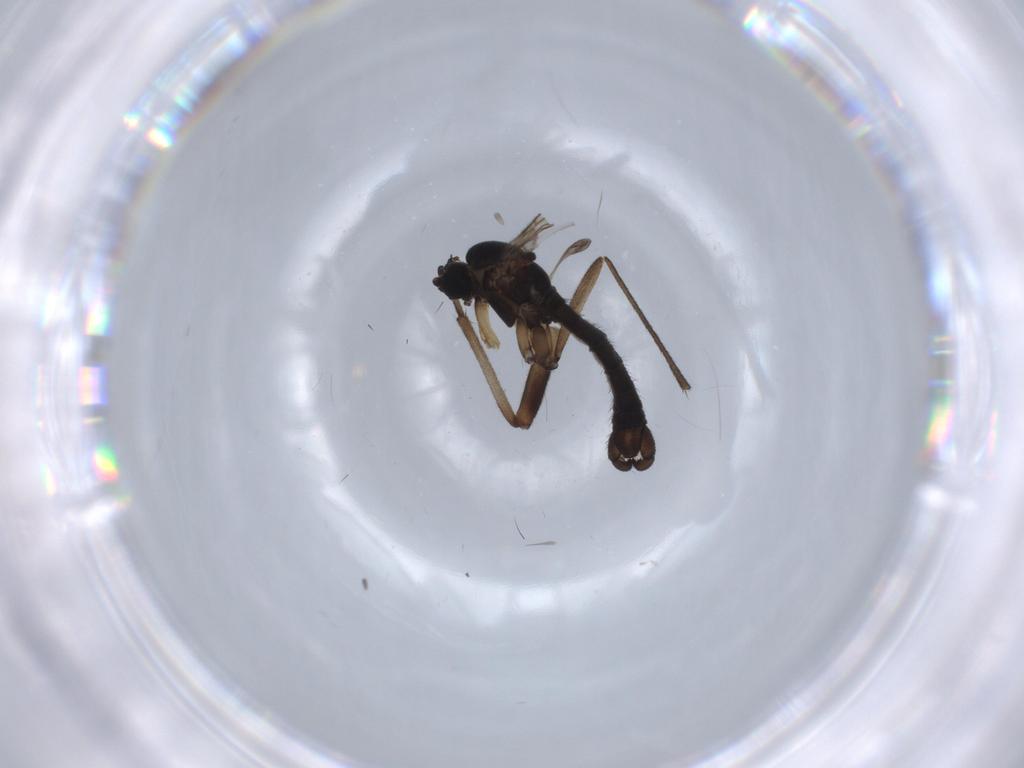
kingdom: Animalia
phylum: Arthropoda
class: Insecta
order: Diptera
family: Sciaridae
